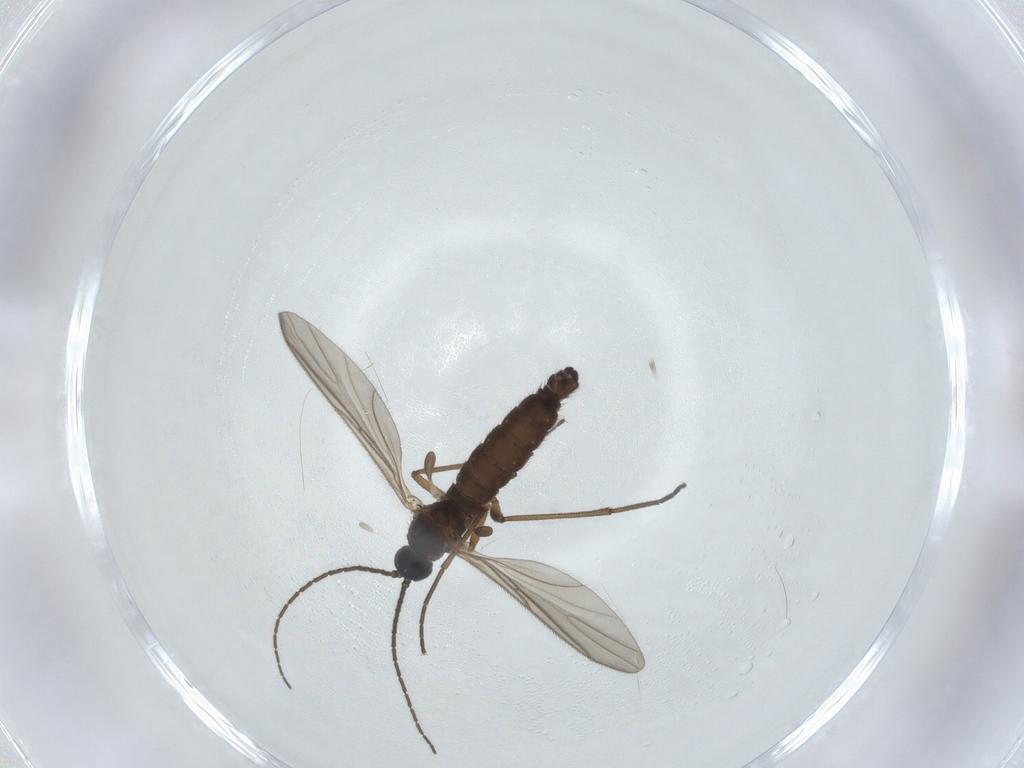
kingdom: Animalia
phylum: Arthropoda
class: Insecta
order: Diptera
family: Sciaridae
